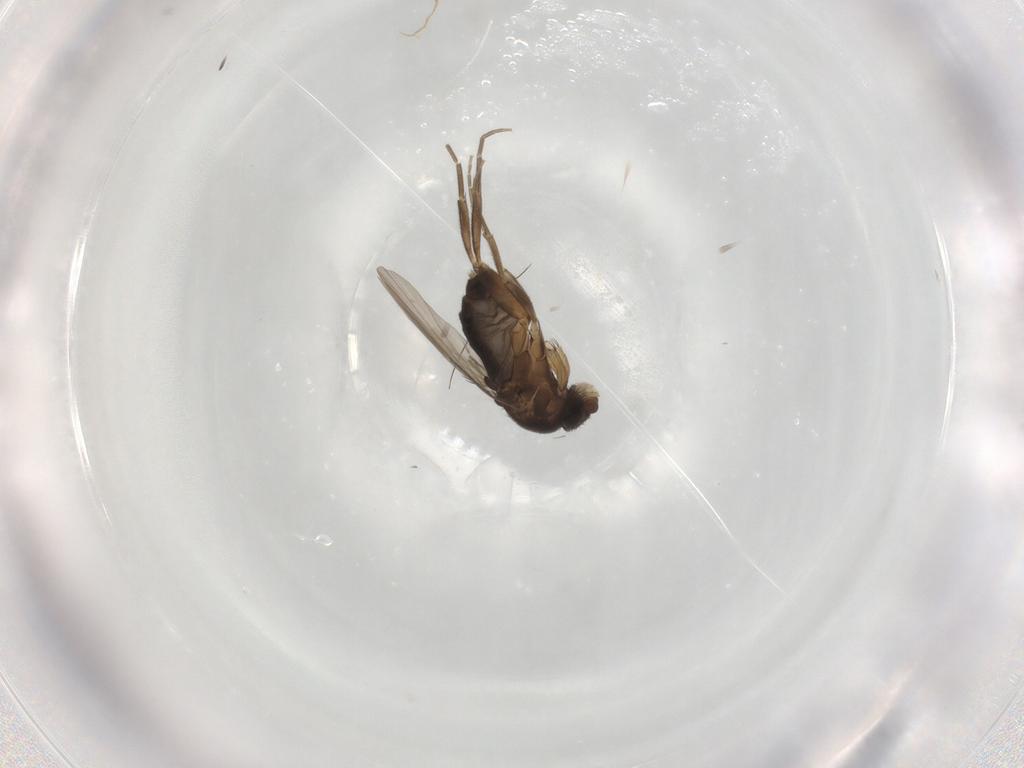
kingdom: Animalia
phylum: Arthropoda
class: Insecta
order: Diptera
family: Phoridae
